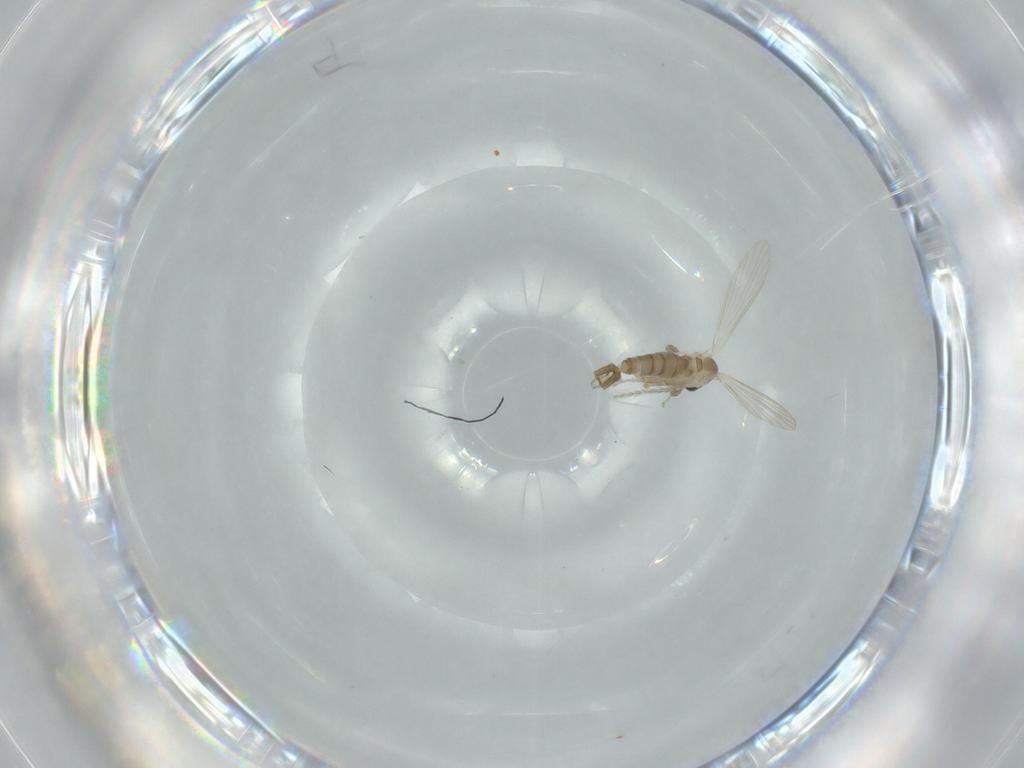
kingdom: Animalia
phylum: Arthropoda
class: Insecta
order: Diptera
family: Psychodidae
